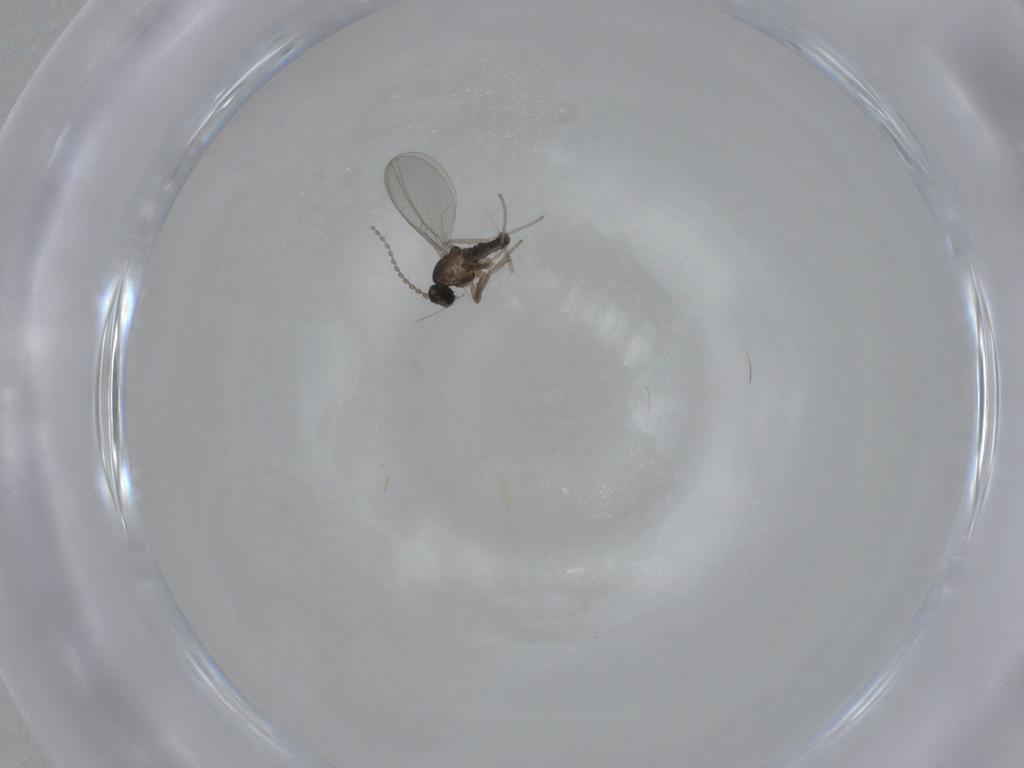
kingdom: Animalia
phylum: Arthropoda
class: Insecta
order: Diptera
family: Cecidomyiidae
